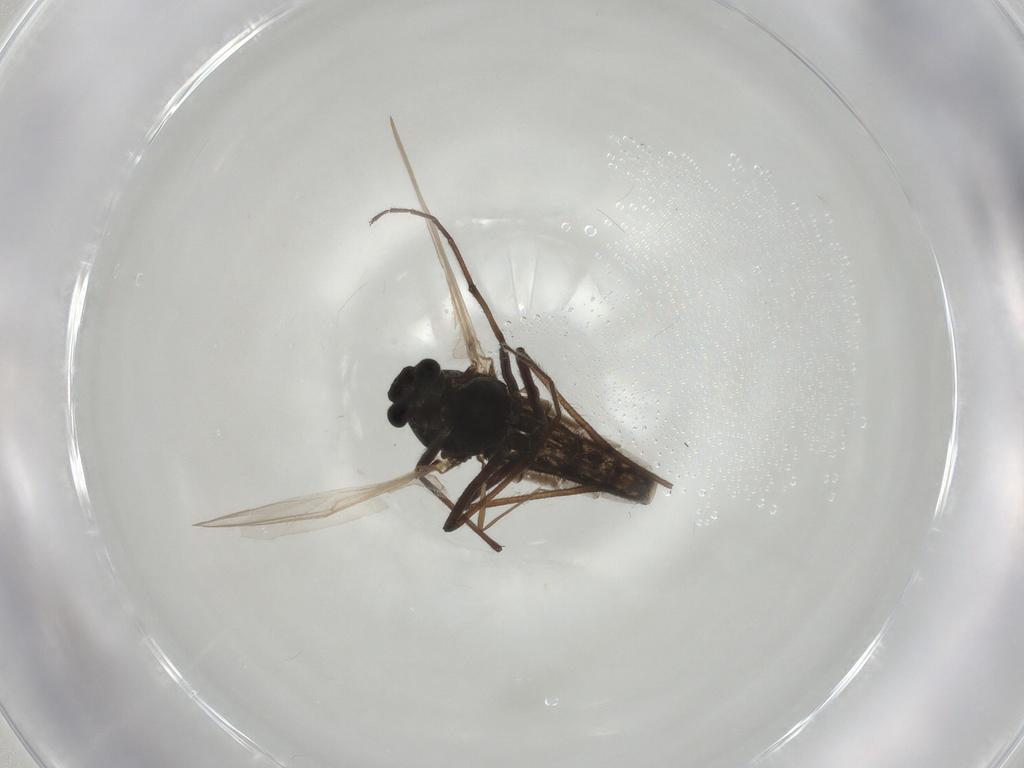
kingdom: Animalia
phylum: Arthropoda
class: Insecta
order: Diptera
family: Chironomidae
